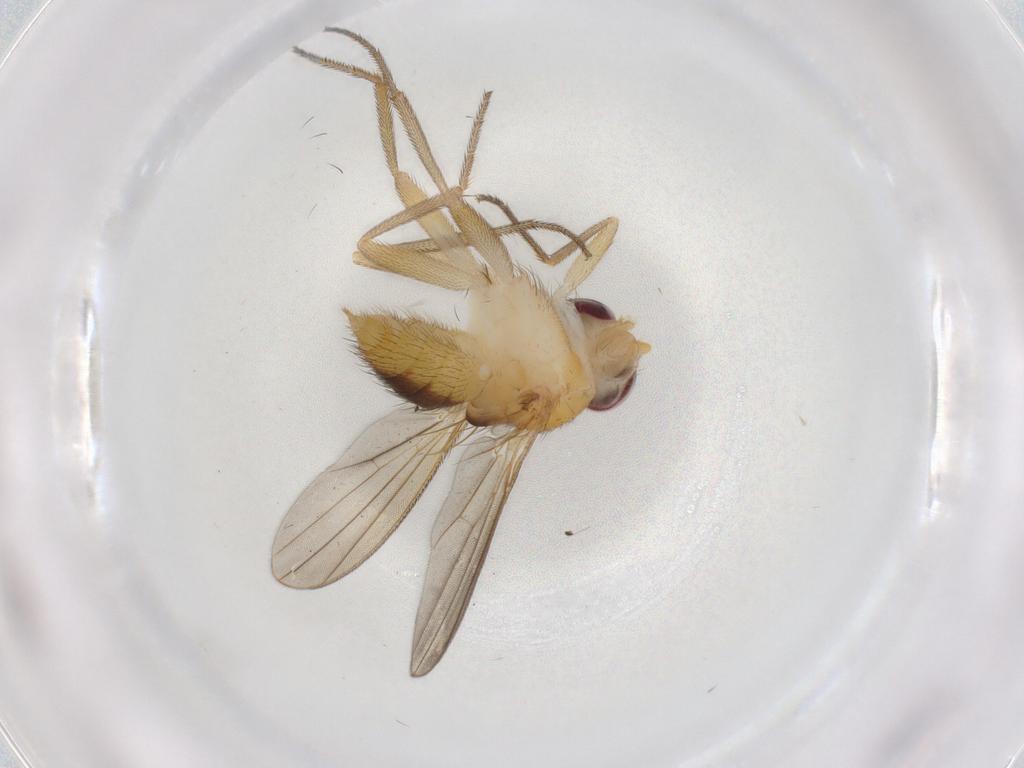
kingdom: Animalia
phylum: Arthropoda
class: Insecta
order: Diptera
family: Clusiidae
